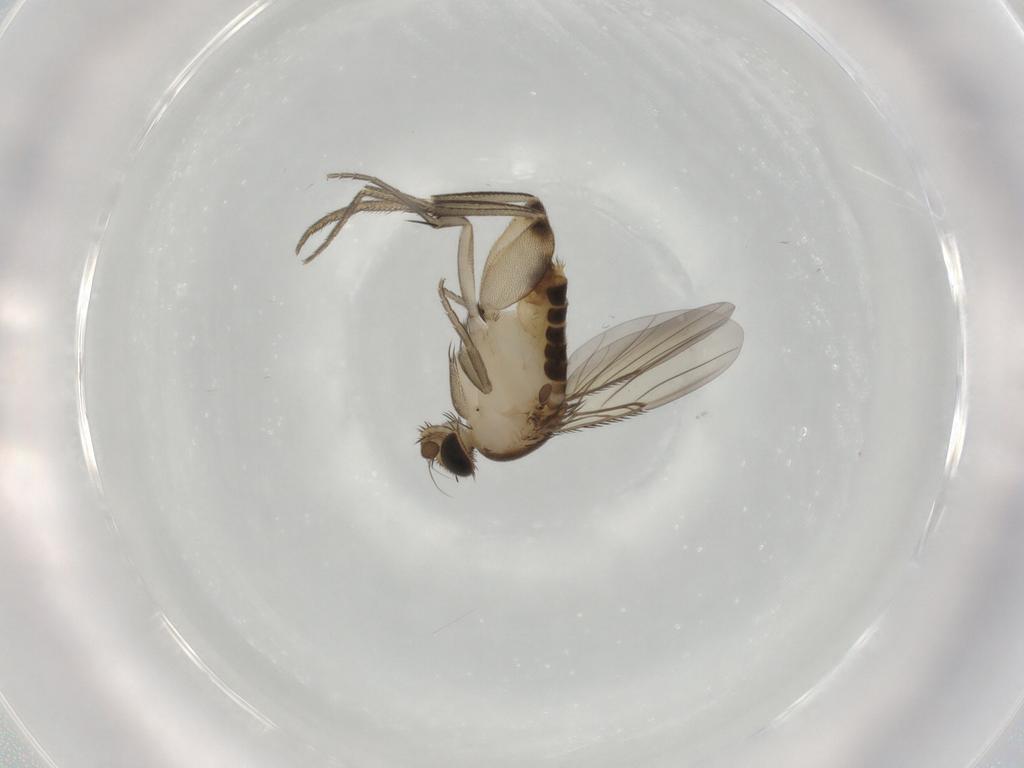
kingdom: Animalia
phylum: Arthropoda
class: Insecta
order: Diptera
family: Phoridae
